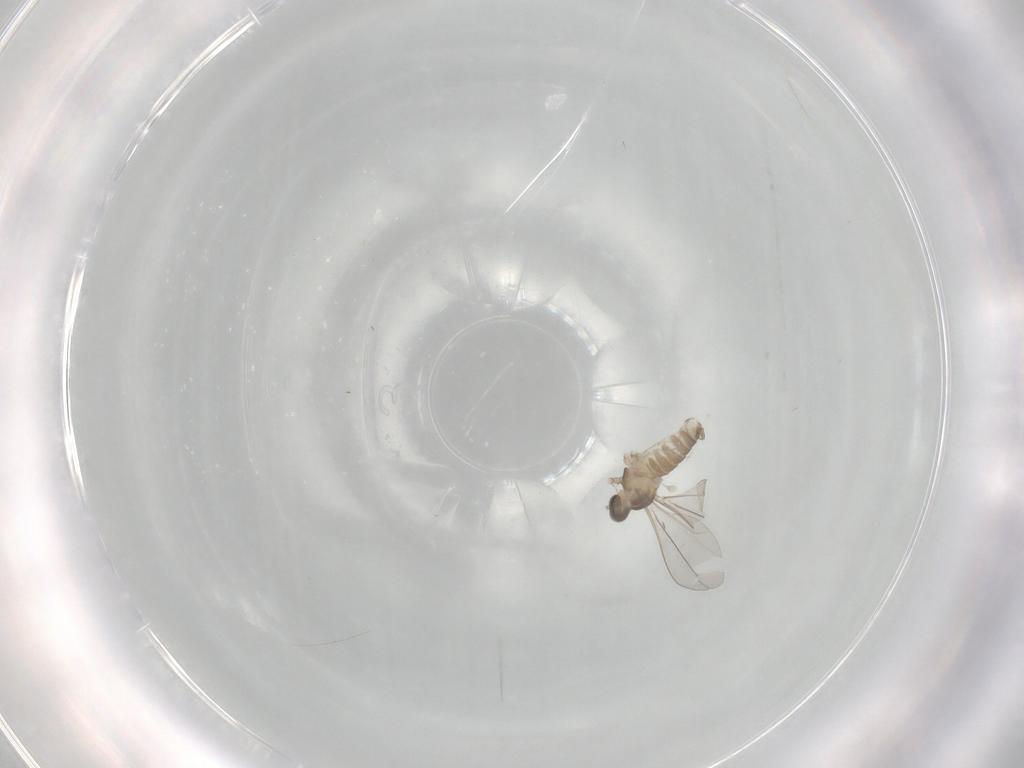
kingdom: Animalia
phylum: Arthropoda
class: Insecta
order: Diptera
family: Cecidomyiidae
